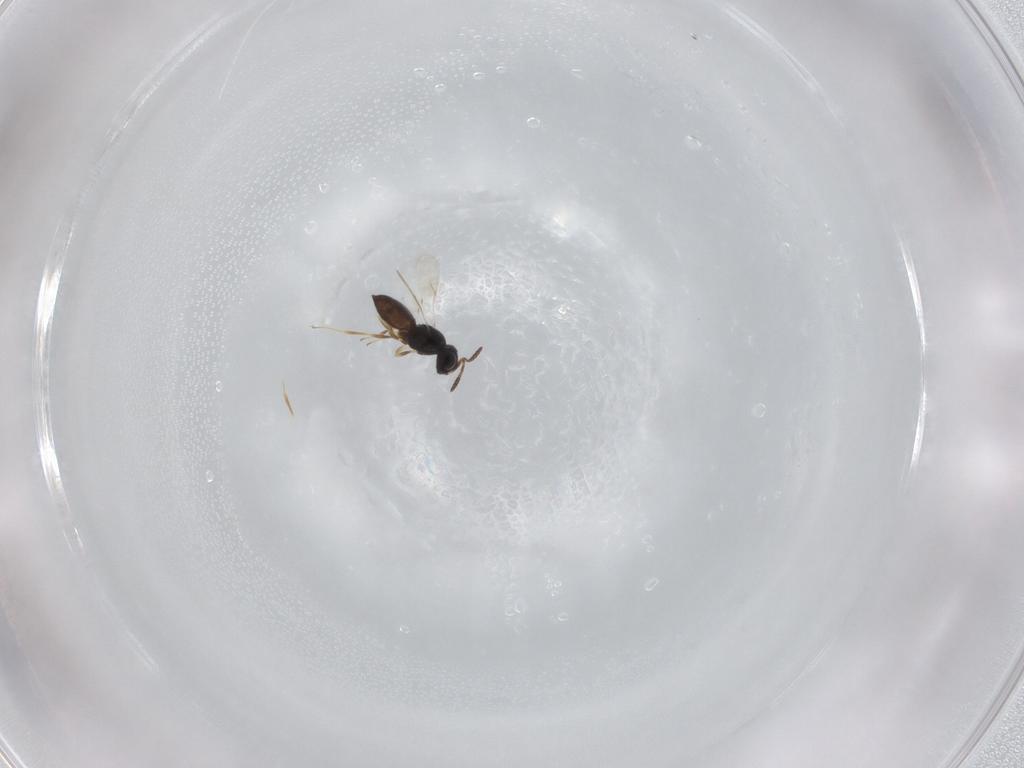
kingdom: Animalia
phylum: Arthropoda
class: Insecta
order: Hymenoptera
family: Scelionidae
